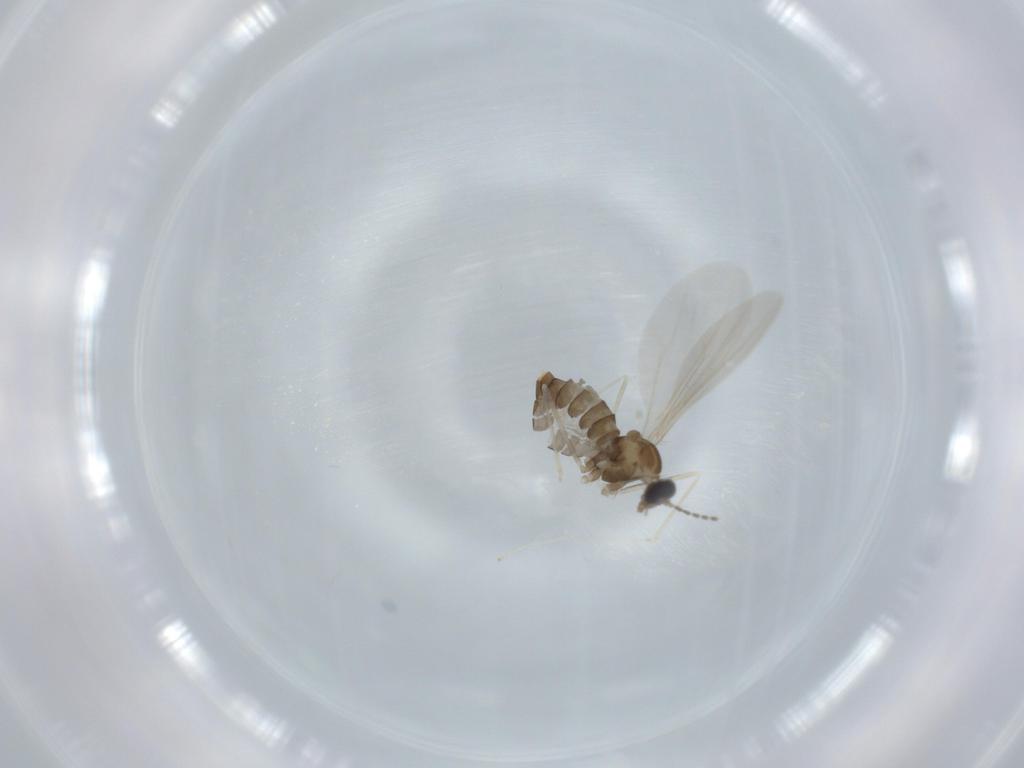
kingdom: Animalia
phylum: Arthropoda
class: Insecta
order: Diptera
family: Cecidomyiidae
